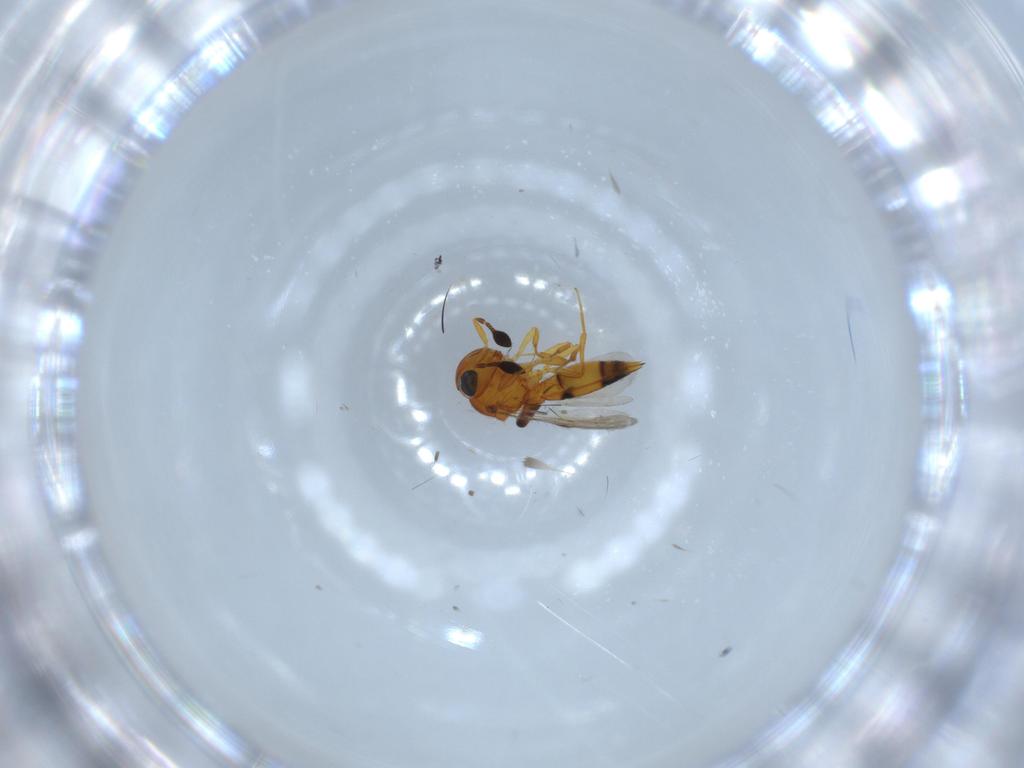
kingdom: Animalia
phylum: Arthropoda
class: Insecta
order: Hymenoptera
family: Scelionidae
